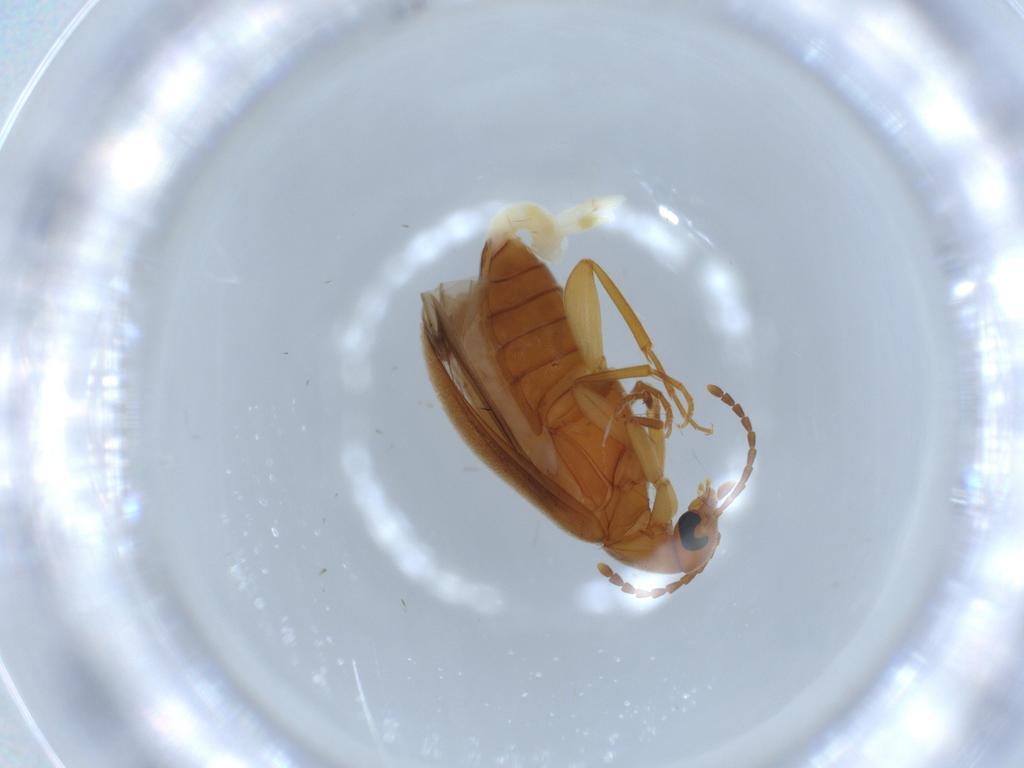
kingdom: Animalia
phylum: Arthropoda
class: Insecta
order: Coleoptera
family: Scraptiidae
